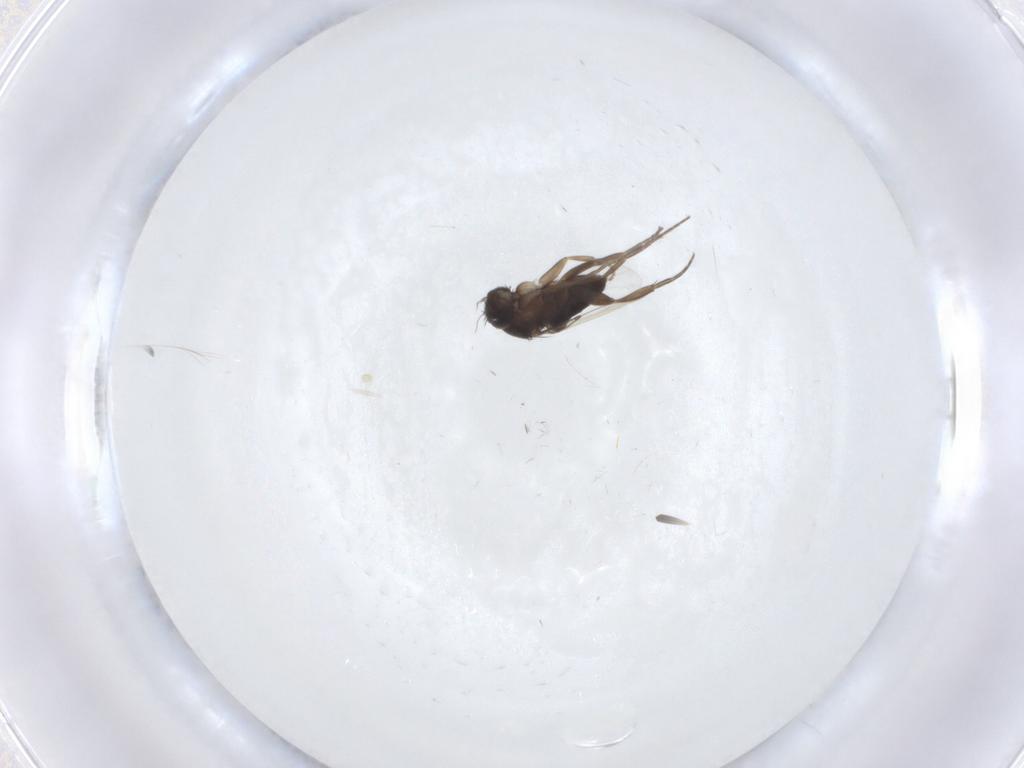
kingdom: Animalia
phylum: Arthropoda
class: Insecta
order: Diptera
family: Phoridae
